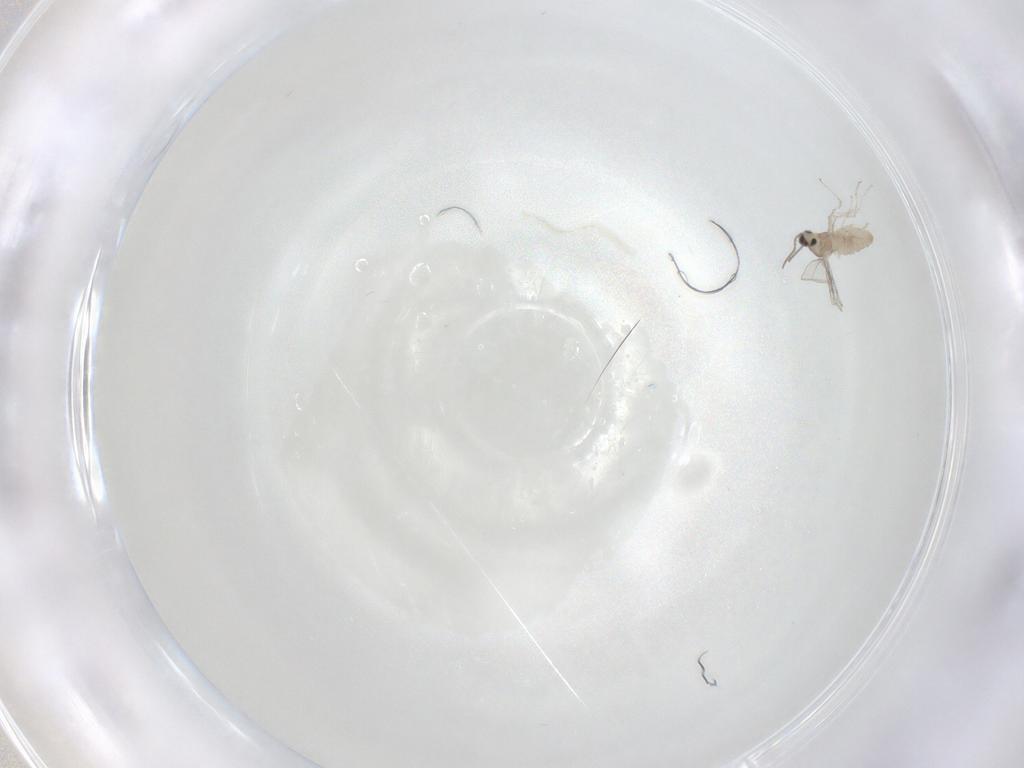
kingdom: Animalia
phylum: Arthropoda
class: Insecta
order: Diptera
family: Cecidomyiidae
